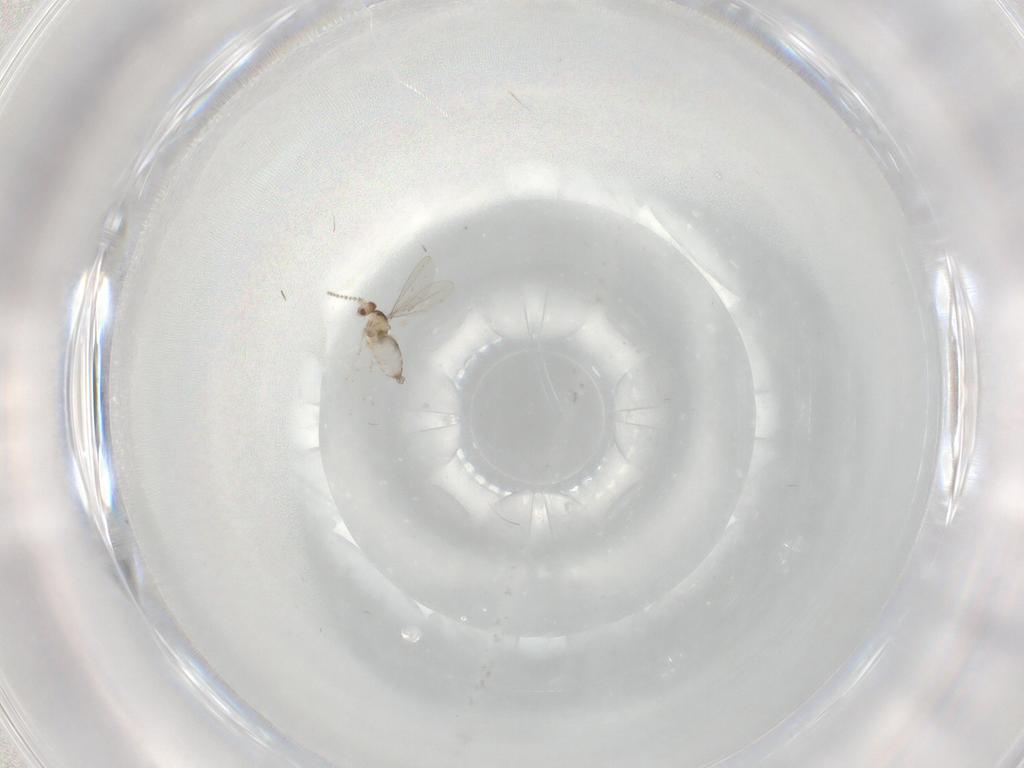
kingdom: Animalia
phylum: Arthropoda
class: Insecta
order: Diptera
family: Cecidomyiidae
